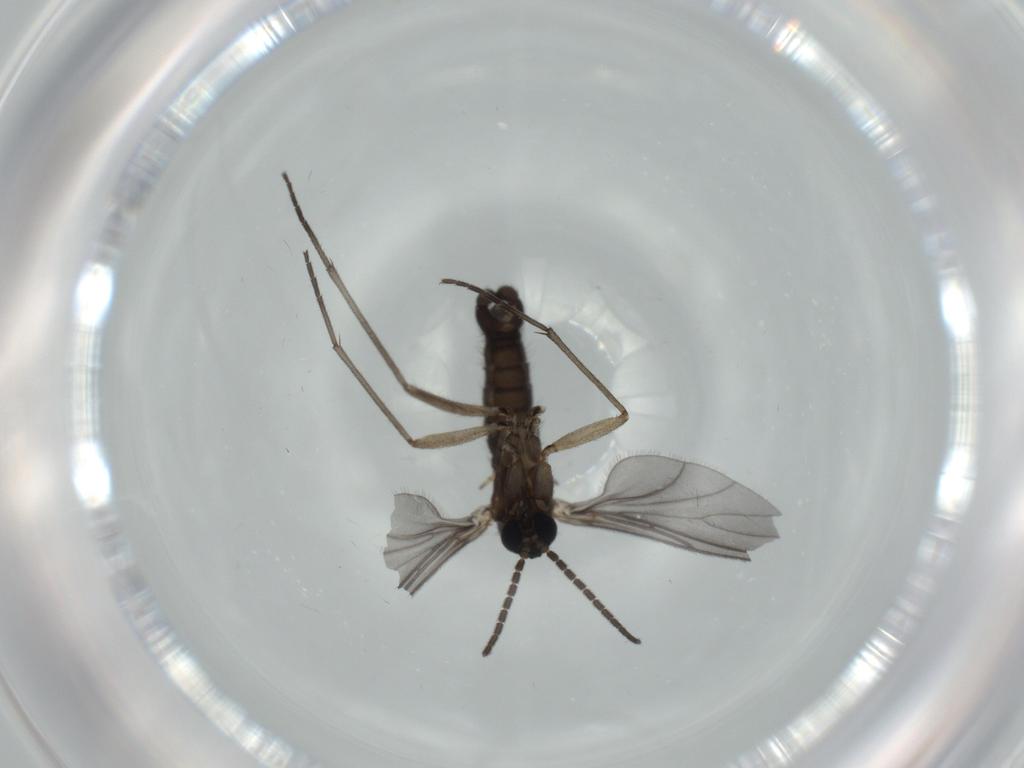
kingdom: Animalia
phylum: Arthropoda
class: Insecta
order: Diptera
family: Sciaridae
